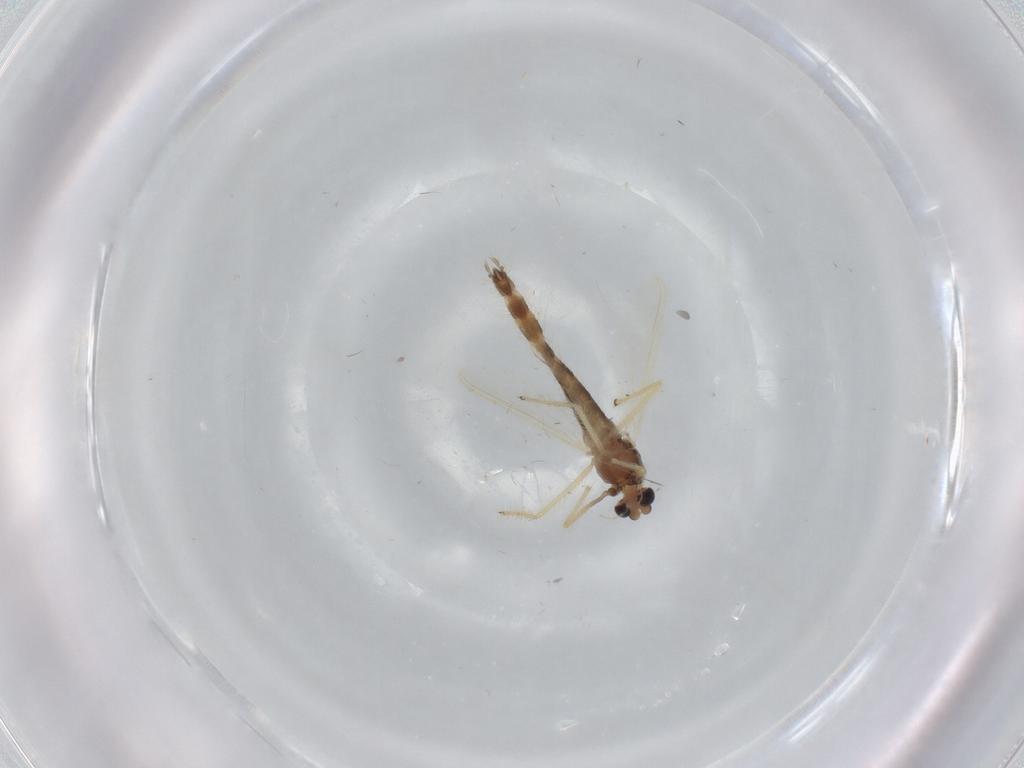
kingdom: Animalia
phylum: Arthropoda
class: Insecta
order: Diptera
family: Chironomidae
